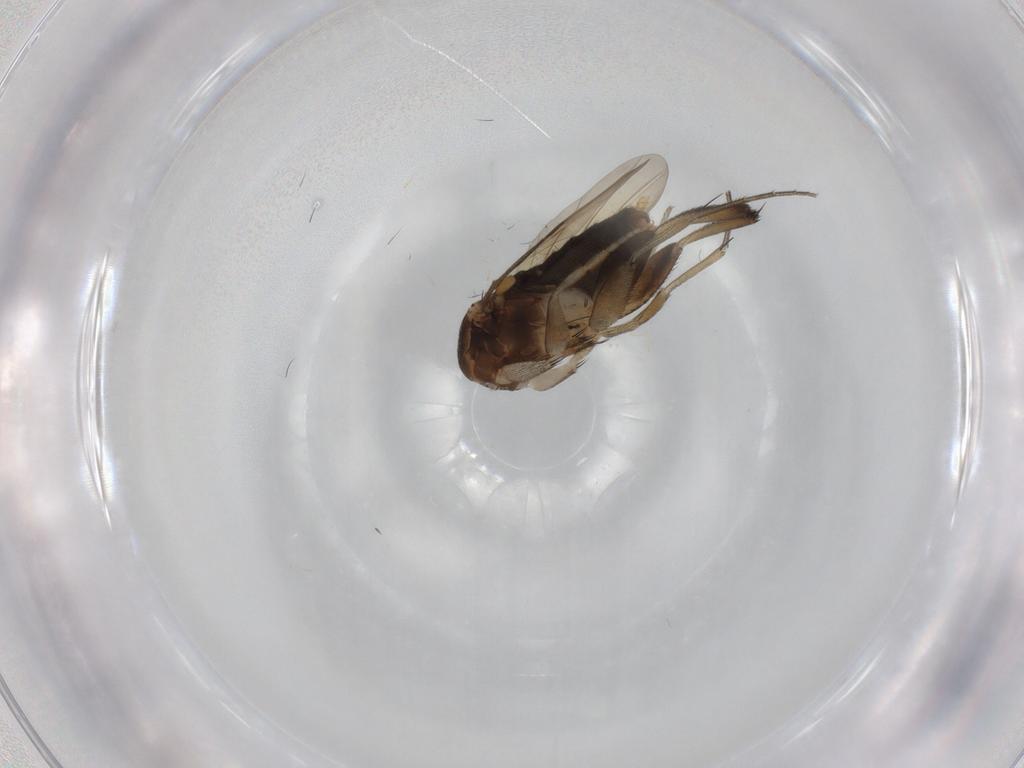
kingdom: Animalia
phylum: Arthropoda
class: Insecta
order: Diptera
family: Phoridae
